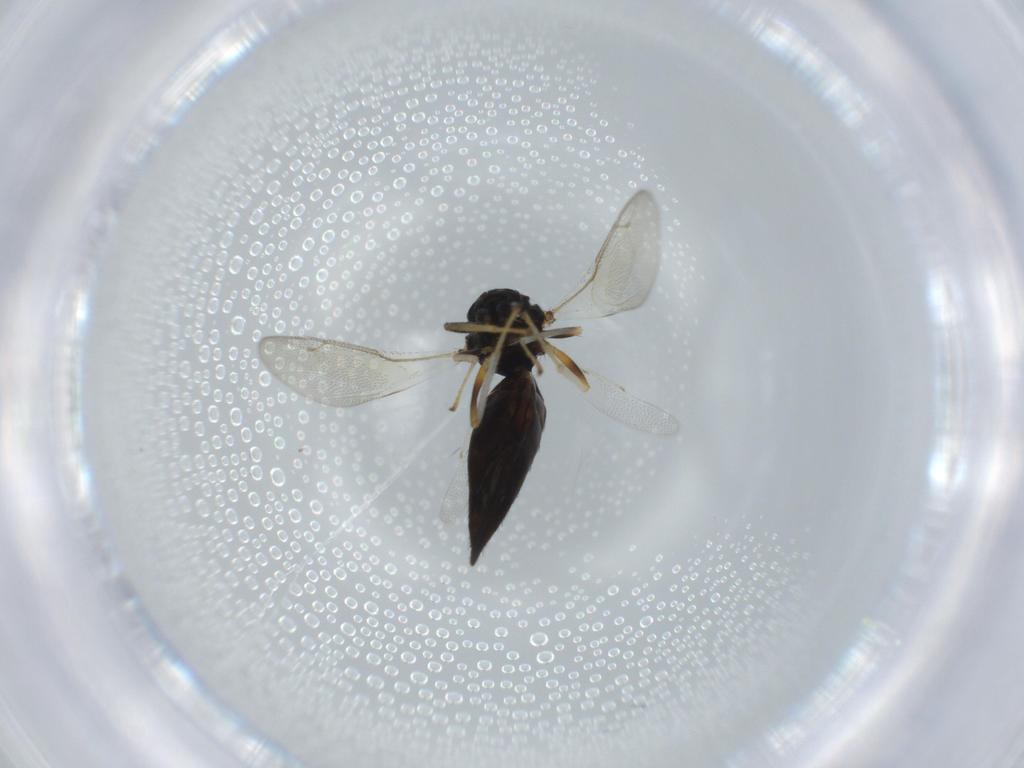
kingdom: Animalia
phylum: Arthropoda
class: Insecta
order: Hymenoptera
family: Pteromalidae
